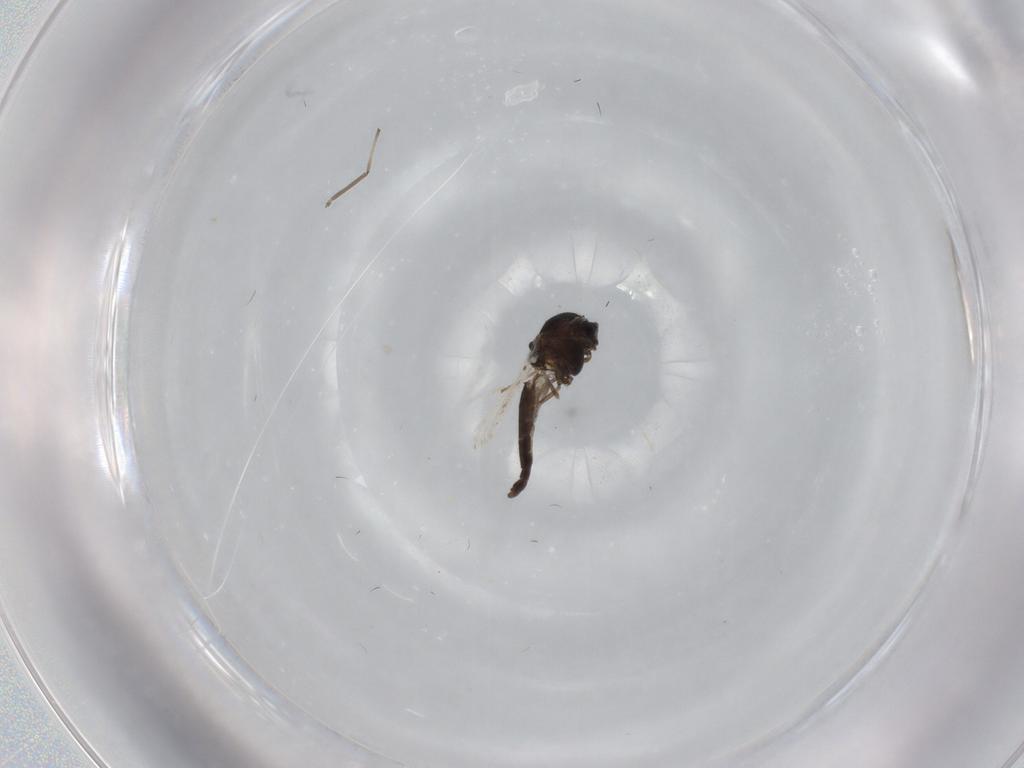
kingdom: Animalia
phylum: Arthropoda
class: Insecta
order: Diptera
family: Chironomidae
